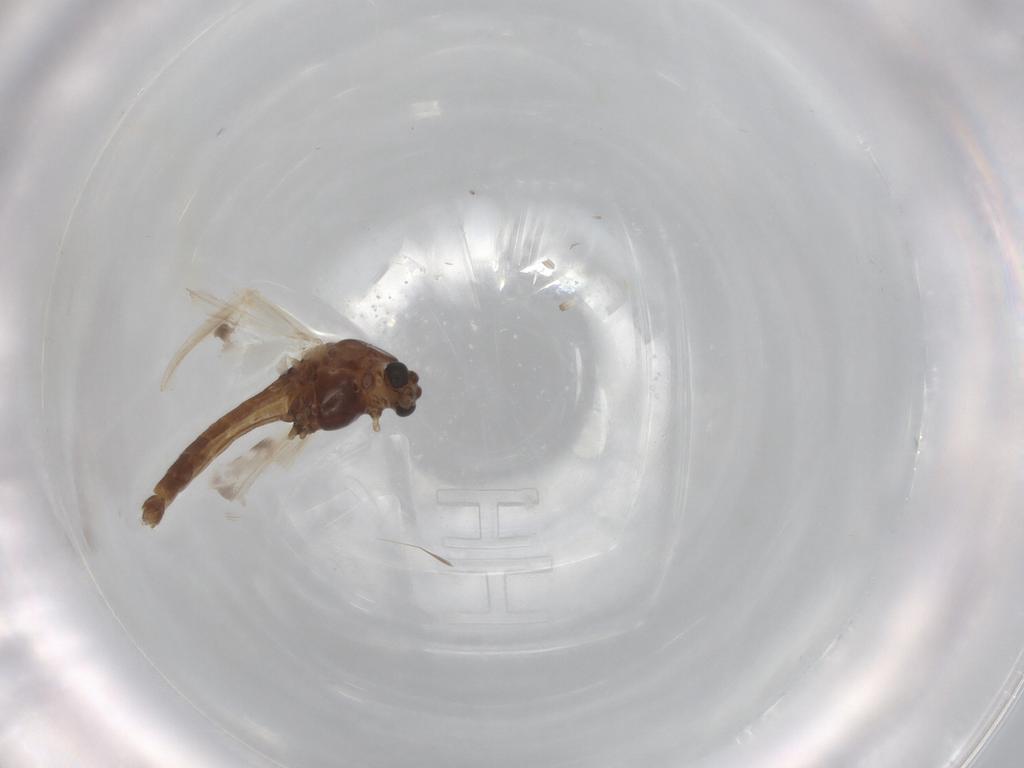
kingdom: Animalia
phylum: Arthropoda
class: Insecta
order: Diptera
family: Chironomidae
